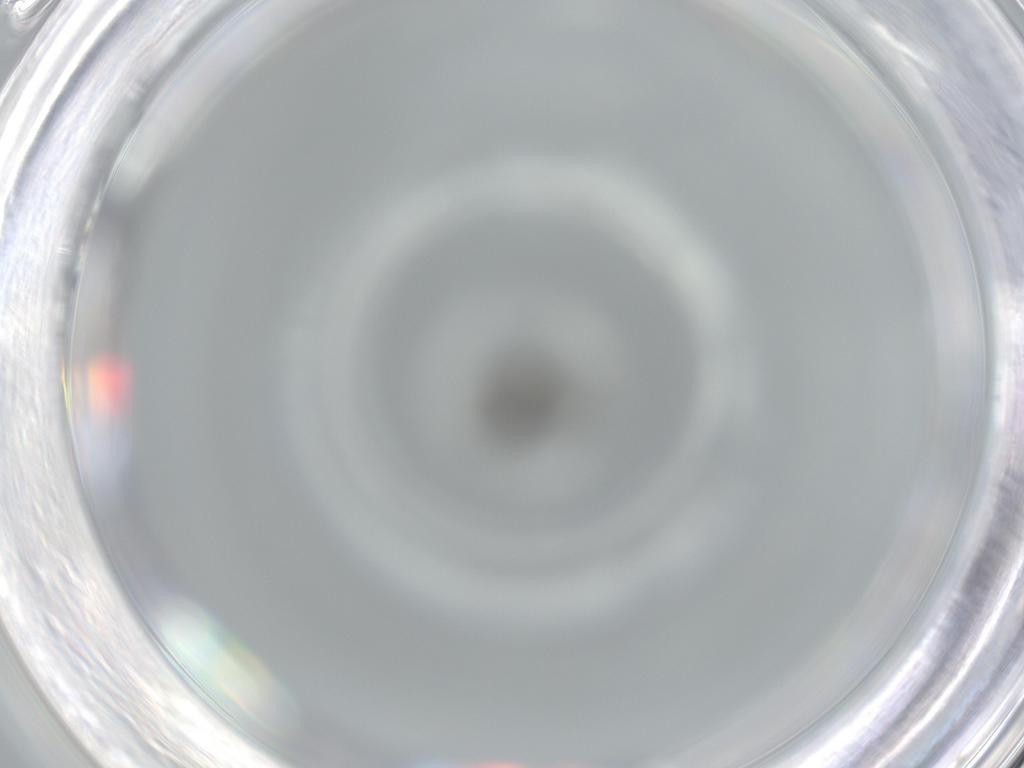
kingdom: Animalia
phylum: Arthropoda
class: Insecta
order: Hymenoptera
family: Scelionidae
